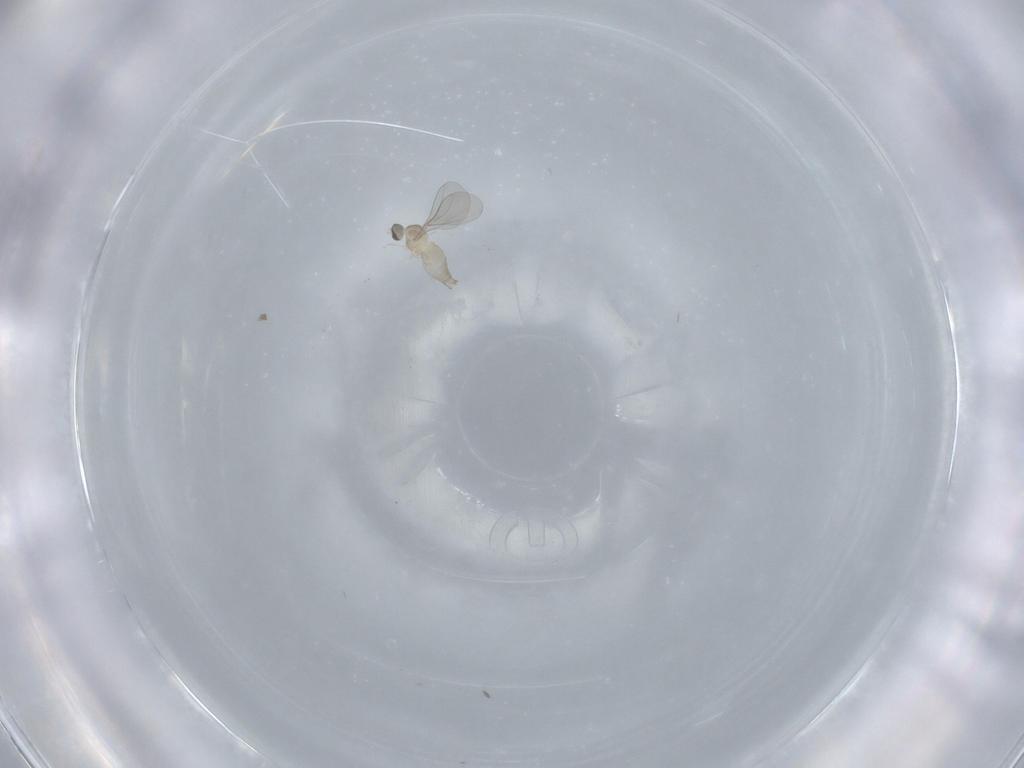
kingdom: Animalia
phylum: Arthropoda
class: Insecta
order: Diptera
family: Cecidomyiidae
